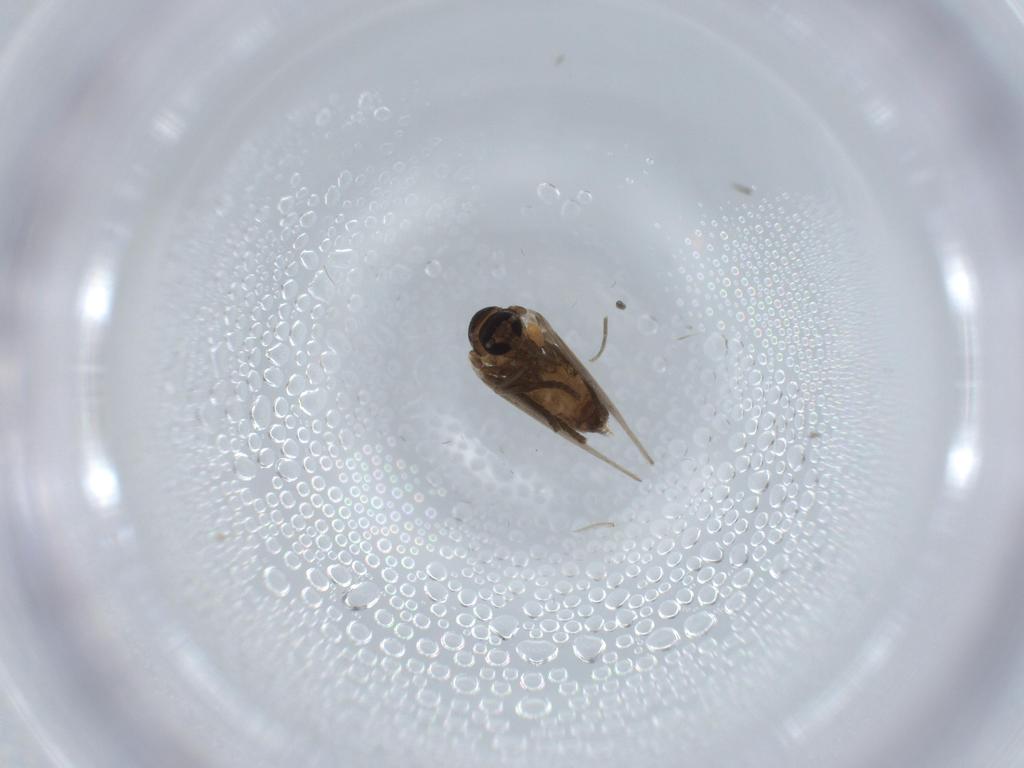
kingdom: Animalia
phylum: Arthropoda
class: Insecta
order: Diptera
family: Psychodidae
